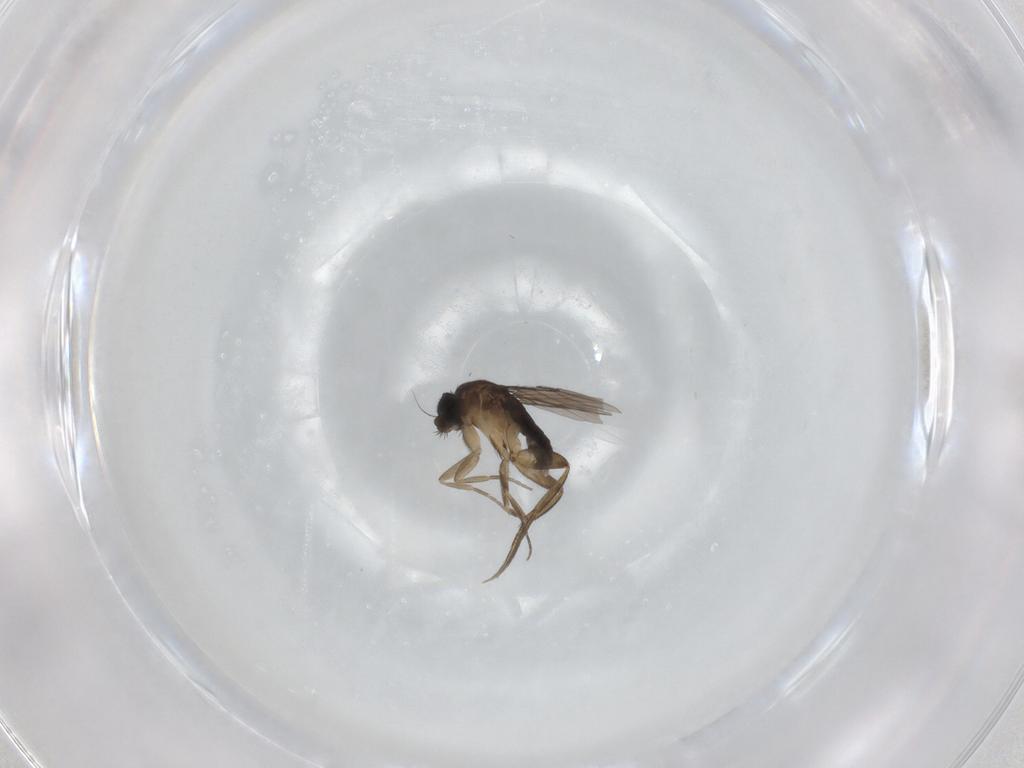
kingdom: Animalia
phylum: Arthropoda
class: Insecta
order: Diptera
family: Phoridae
